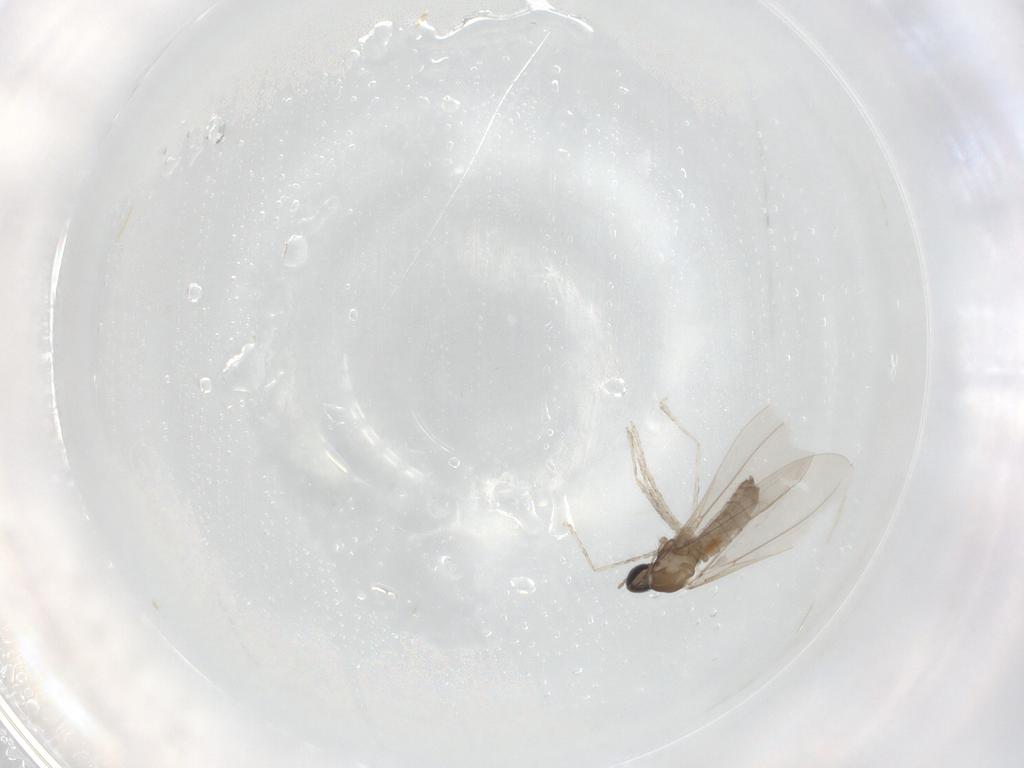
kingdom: Animalia
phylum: Arthropoda
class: Insecta
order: Diptera
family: Cecidomyiidae
